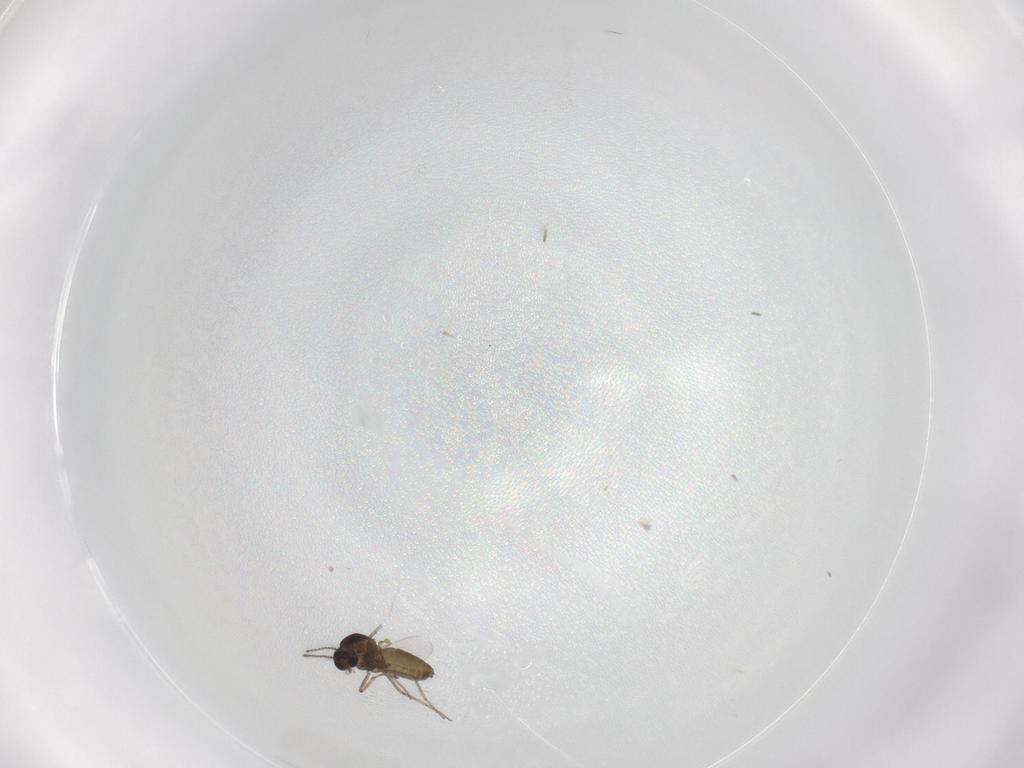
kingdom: Animalia
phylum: Arthropoda
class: Insecta
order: Diptera
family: Ceratopogonidae
